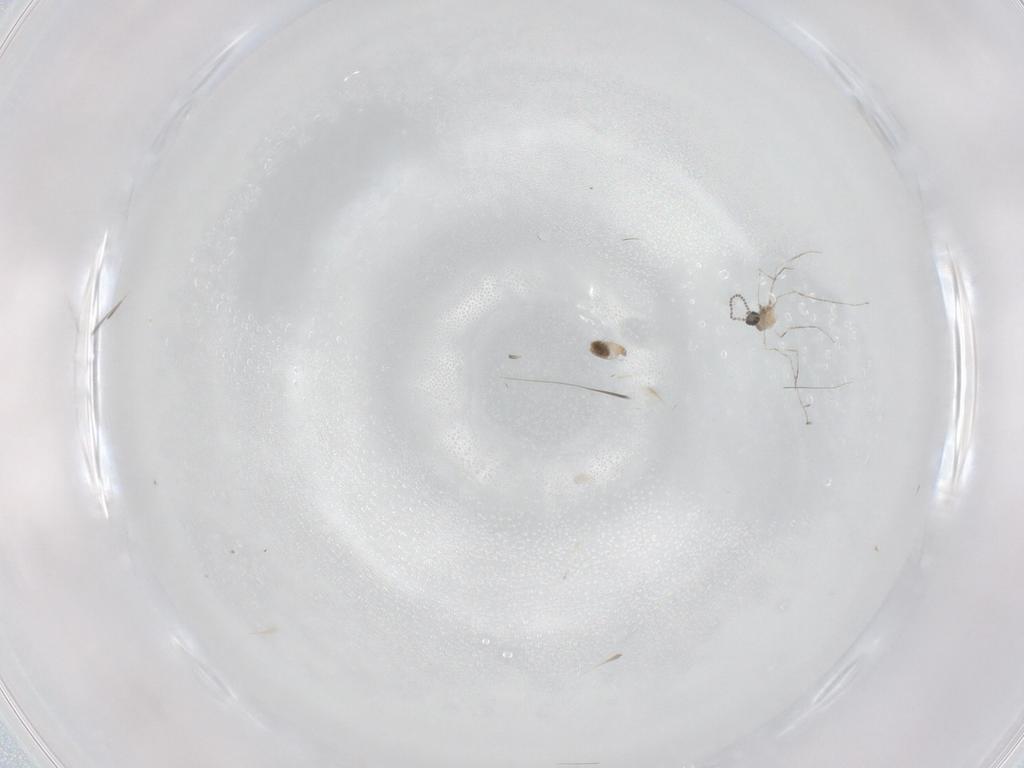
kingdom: Animalia
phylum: Arthropoda
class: Insecta
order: Diptera
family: Cecidomyiidae
